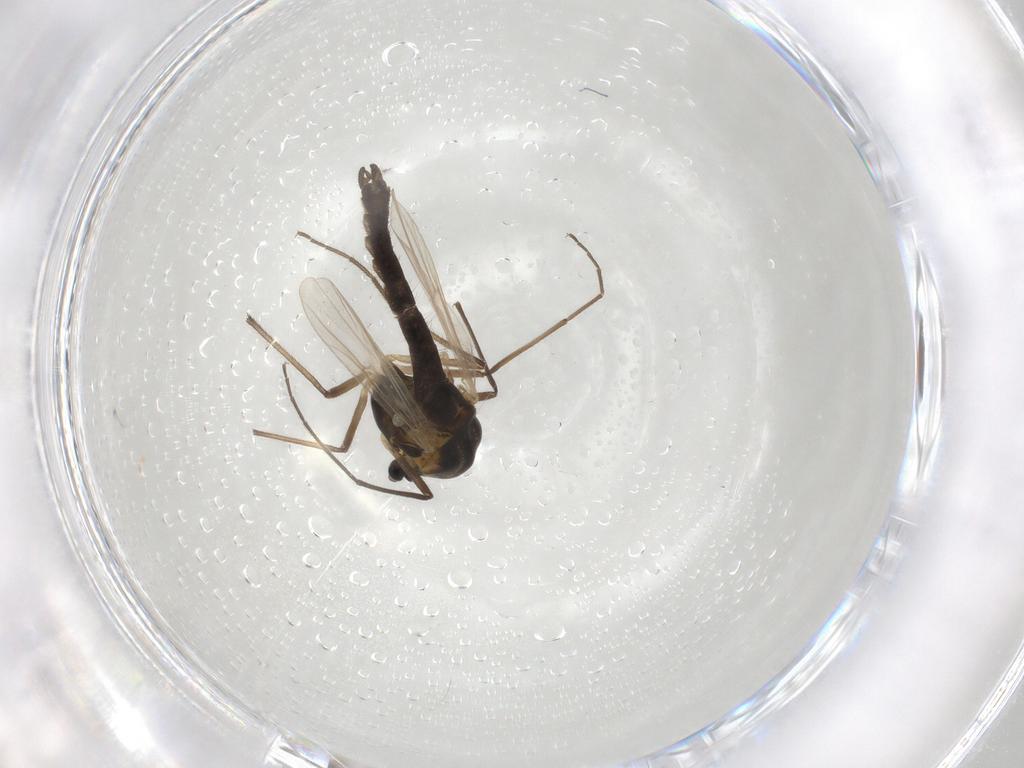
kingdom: Animalia
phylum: Arthropoda
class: Insecta
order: Diptera
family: Chironomidae
